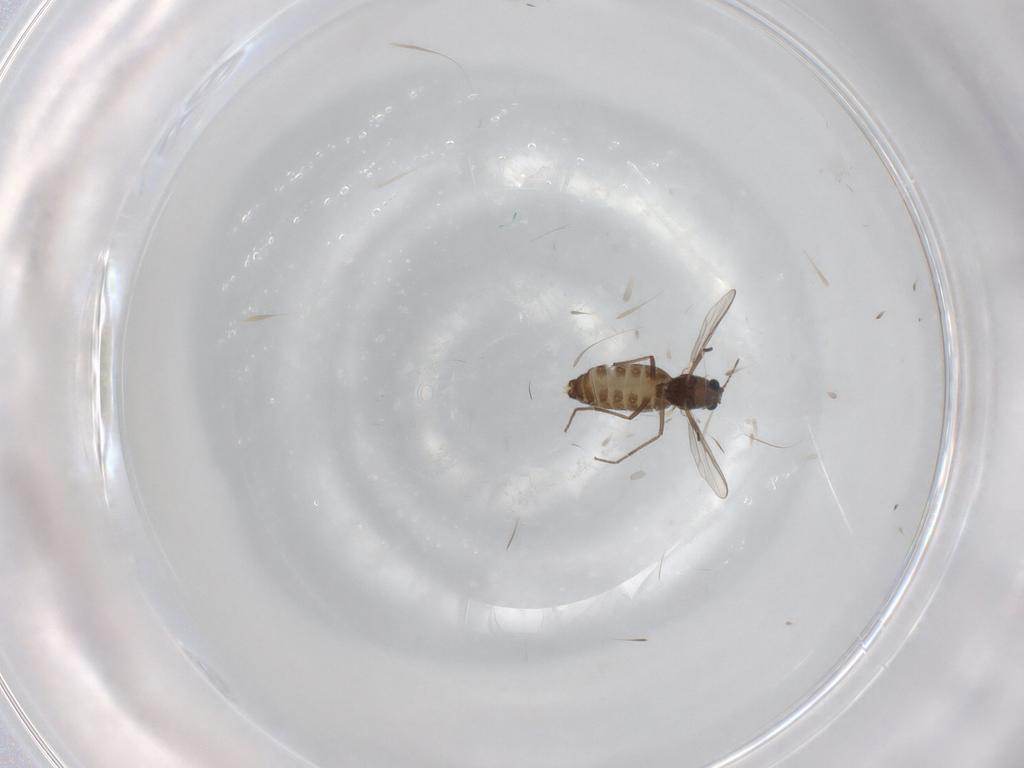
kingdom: Animalia
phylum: Arthropoda
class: Insecta
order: Diptera
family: Chironomidae
